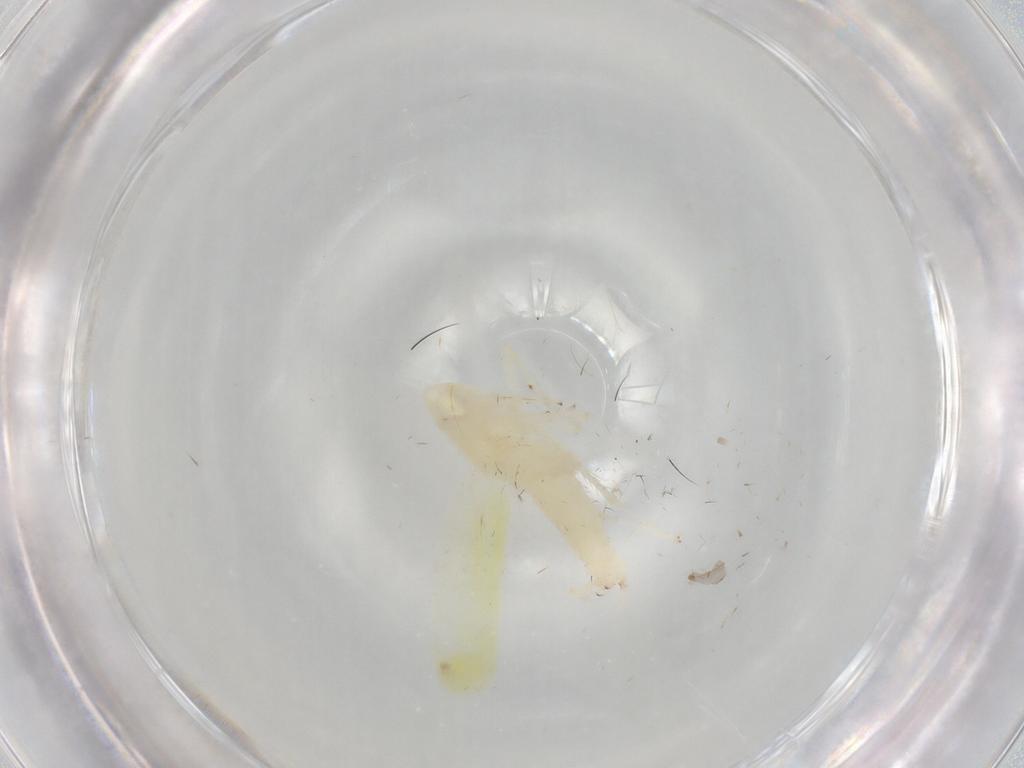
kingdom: Animalia
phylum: Arthropoda
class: Insecta
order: Hemiptera
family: Cicadellidae
